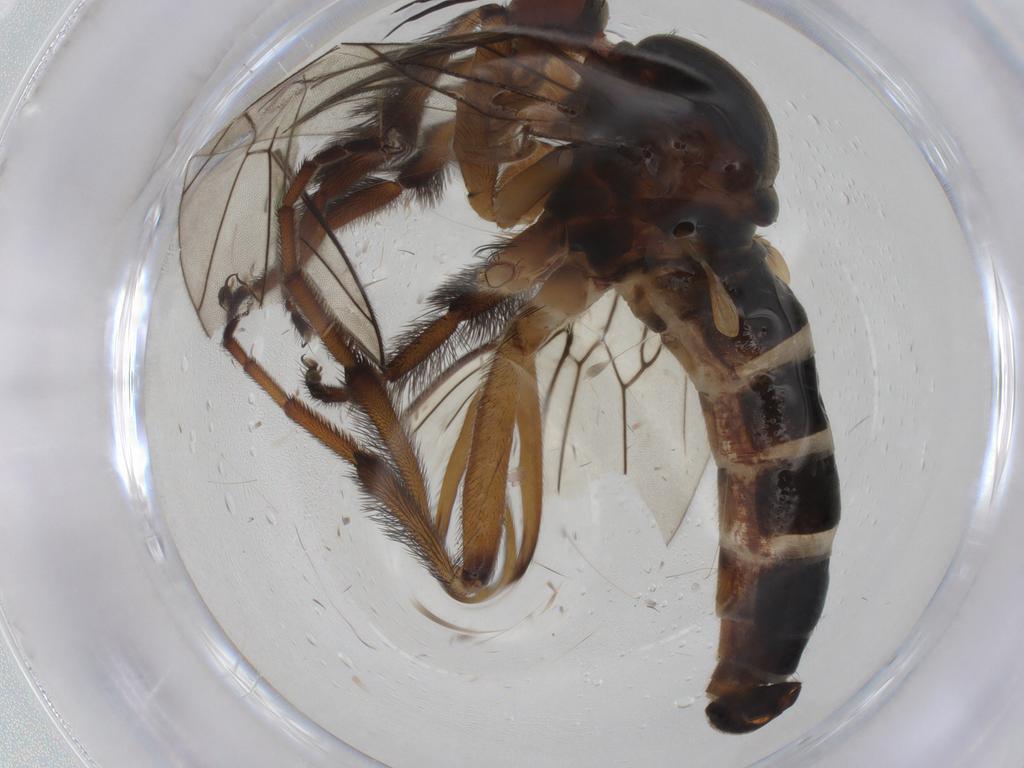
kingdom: Animalia
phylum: Arthropoda
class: Insecta
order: Diptera
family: Empididae
